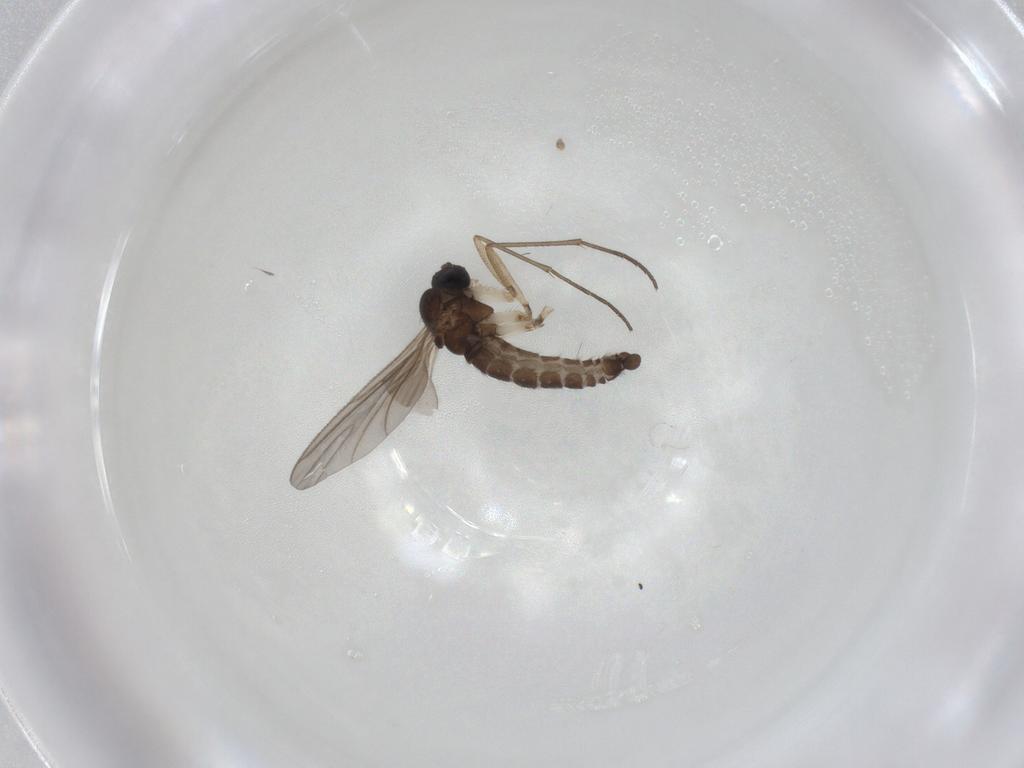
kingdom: Animalia
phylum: Arthropoda
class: Insecta
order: Diptera
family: Sciaridae
